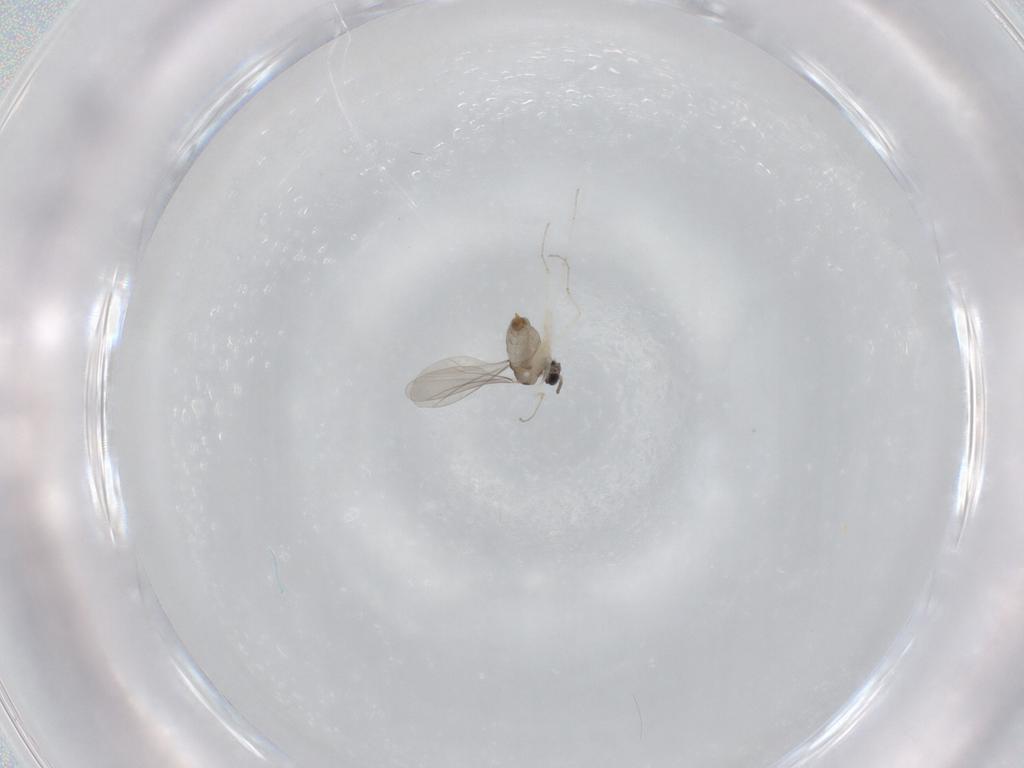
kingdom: Animalia
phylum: Arthropoda
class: Insecta
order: Diptera
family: Cecidomyiidae
